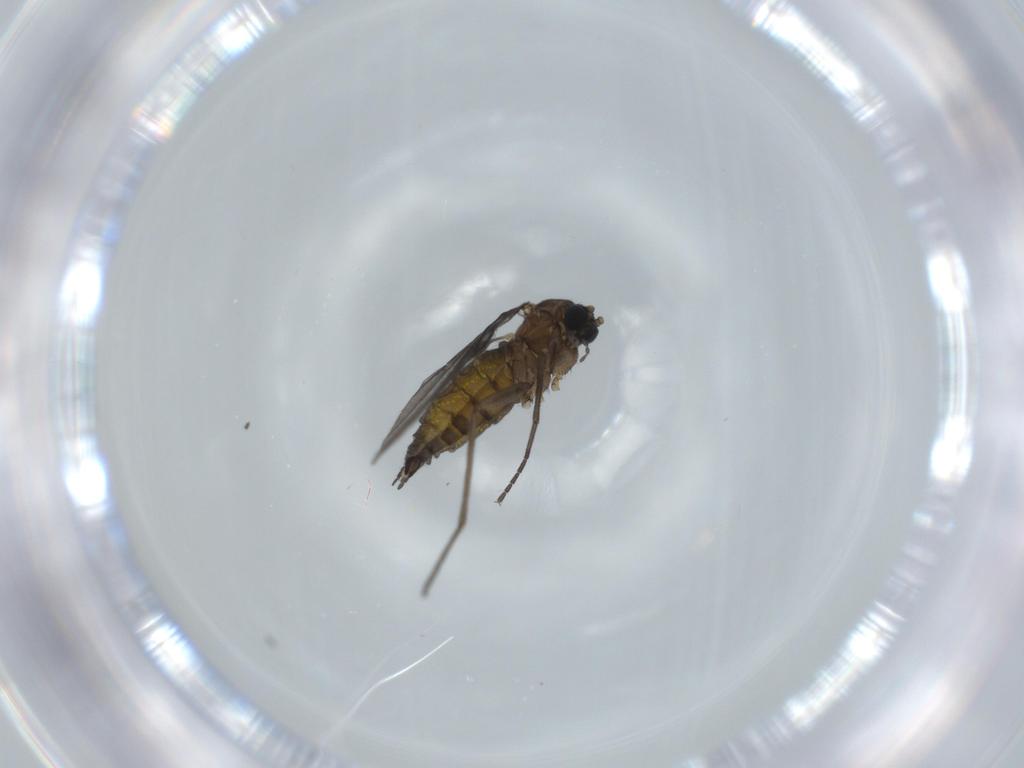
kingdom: Animalia
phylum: Arthropoda
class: Insecta
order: Diptera
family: Sciaridae
